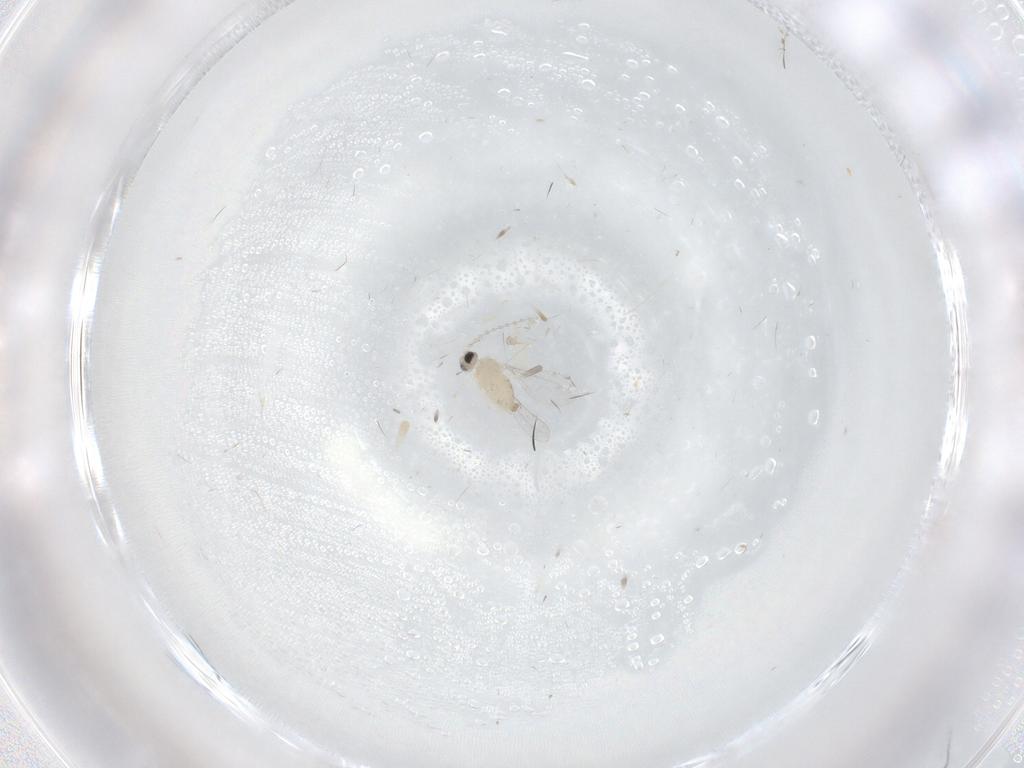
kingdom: Animalia
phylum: Arthropoda
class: Insecta
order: Diptera
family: Cecidomyiidae
